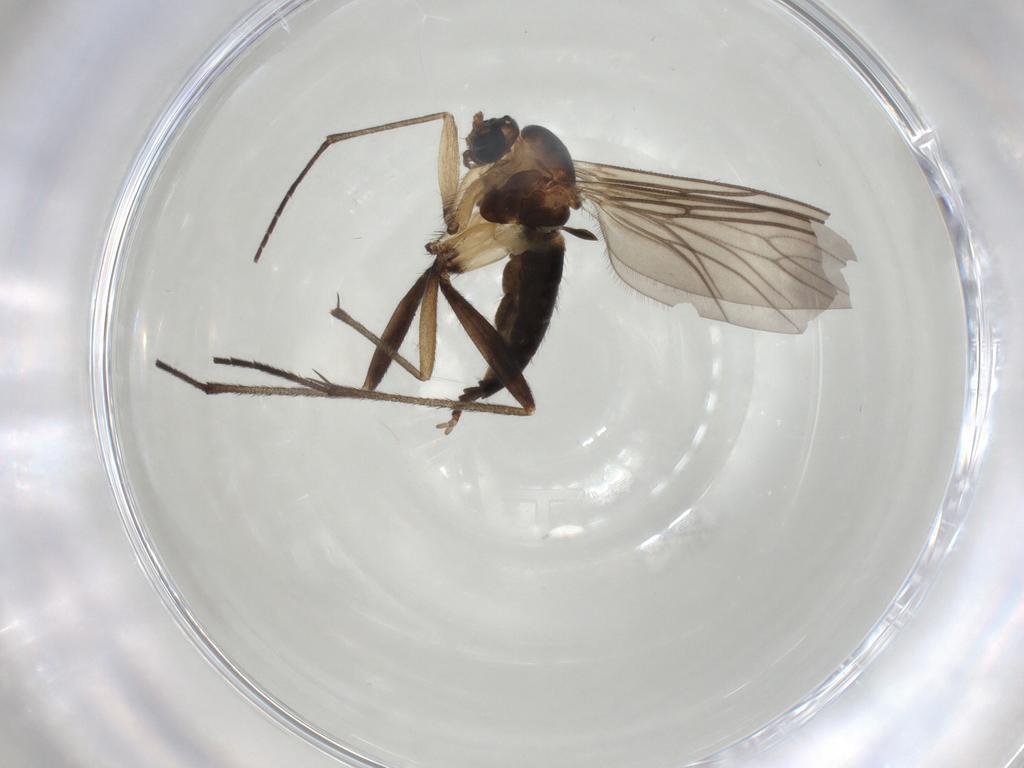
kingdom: Animalia
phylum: Arthropoda
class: Insecta
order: Diptera
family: Sciaridae
